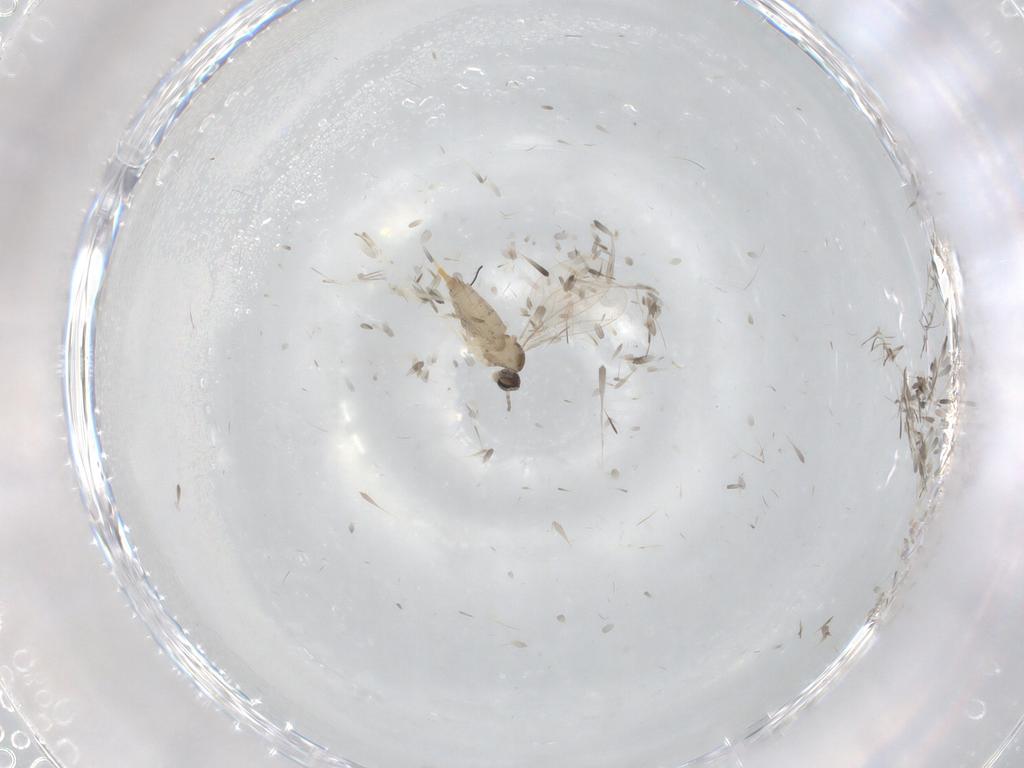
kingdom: Animalia
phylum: Arthropoda
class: Insecta
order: Diptera
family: Cecidomyiidae
